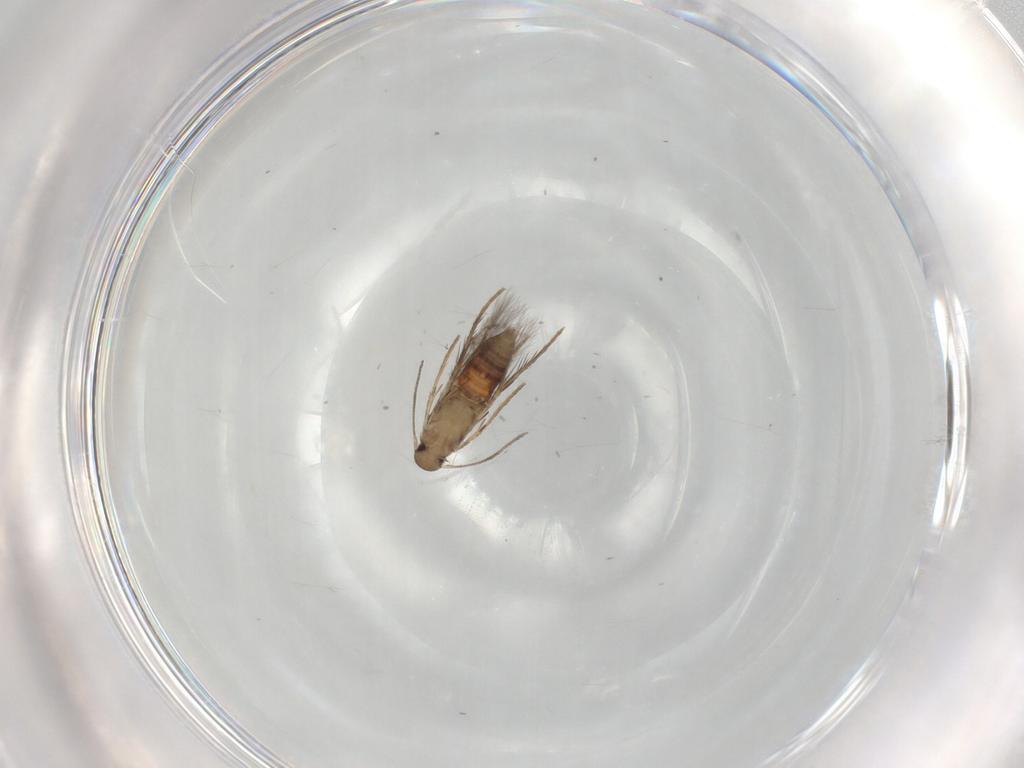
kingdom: Animalia
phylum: Arthropoda
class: Insecta
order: Lepidoptera
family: Pyralidae
